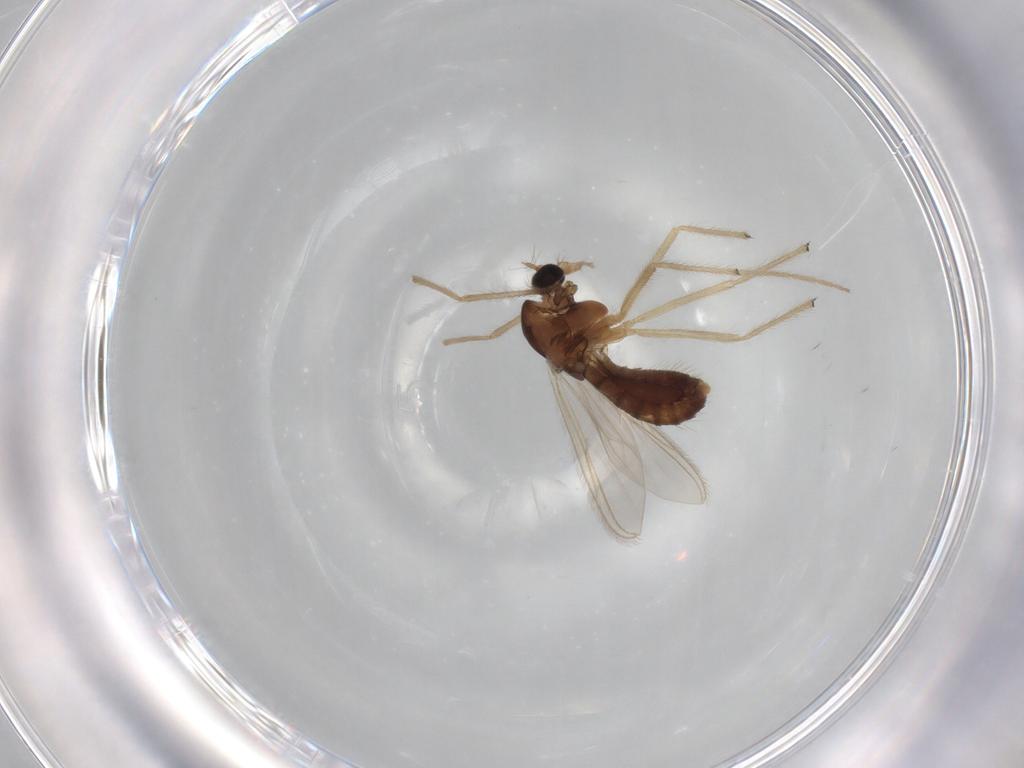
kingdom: Animalia
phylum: Arthropoda
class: Insecta
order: Diptera
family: Chironomidae
